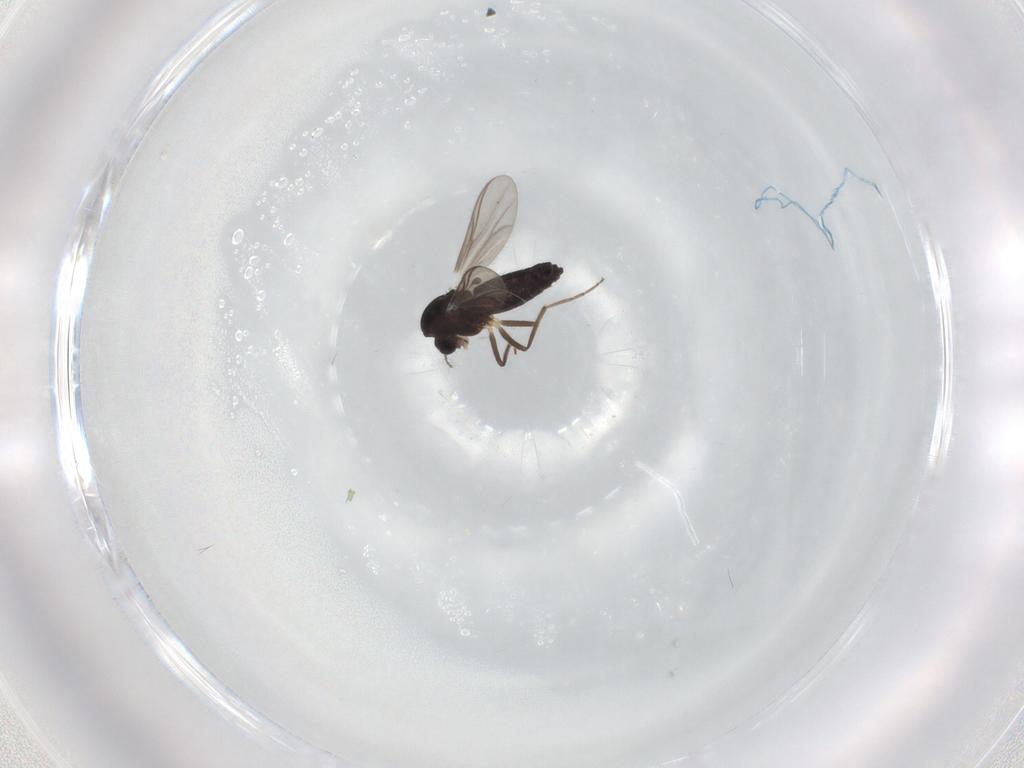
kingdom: Animalia
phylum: Arthropoda
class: Insecta
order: Diptera
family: Chironomidae
